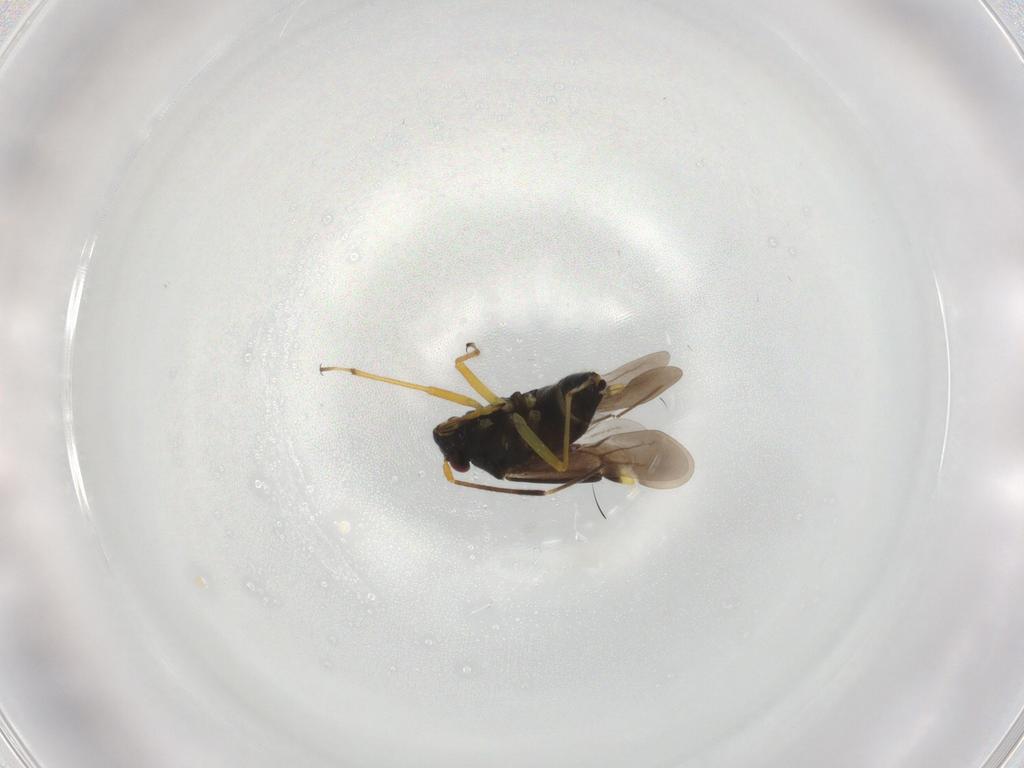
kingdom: Animalia
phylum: Arthropoda
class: Insecta
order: Hemiptera
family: Miridae
